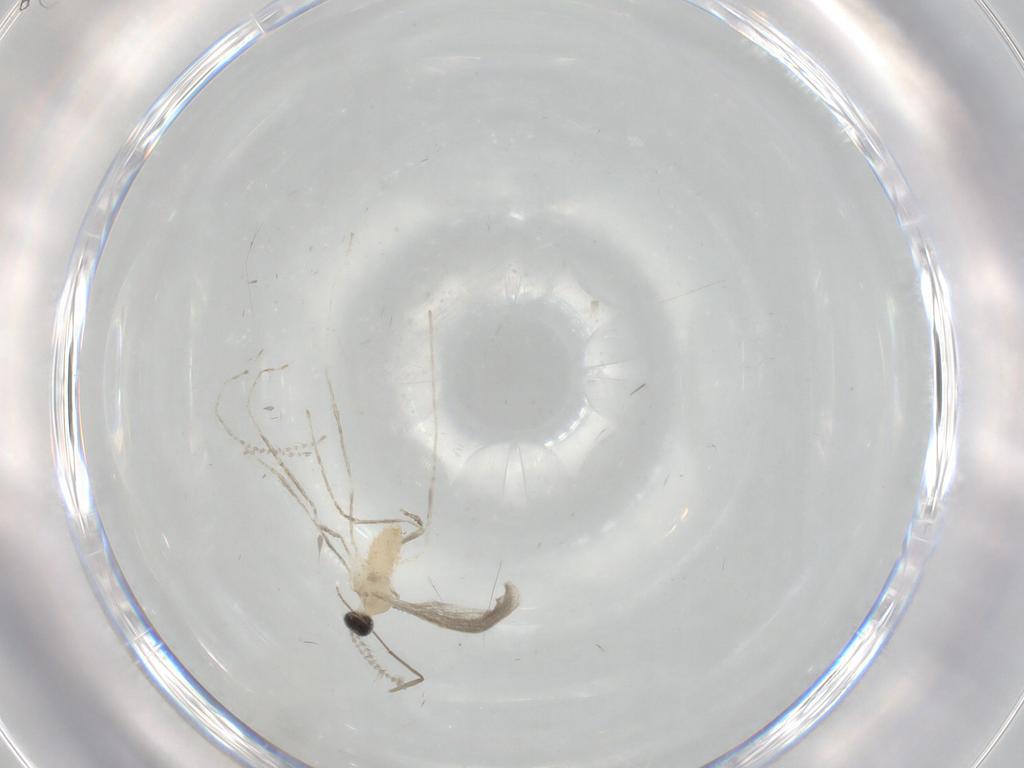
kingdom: Animalia
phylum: Arthropoda
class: Insecta
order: Diptera
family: Cecidomyiidae
